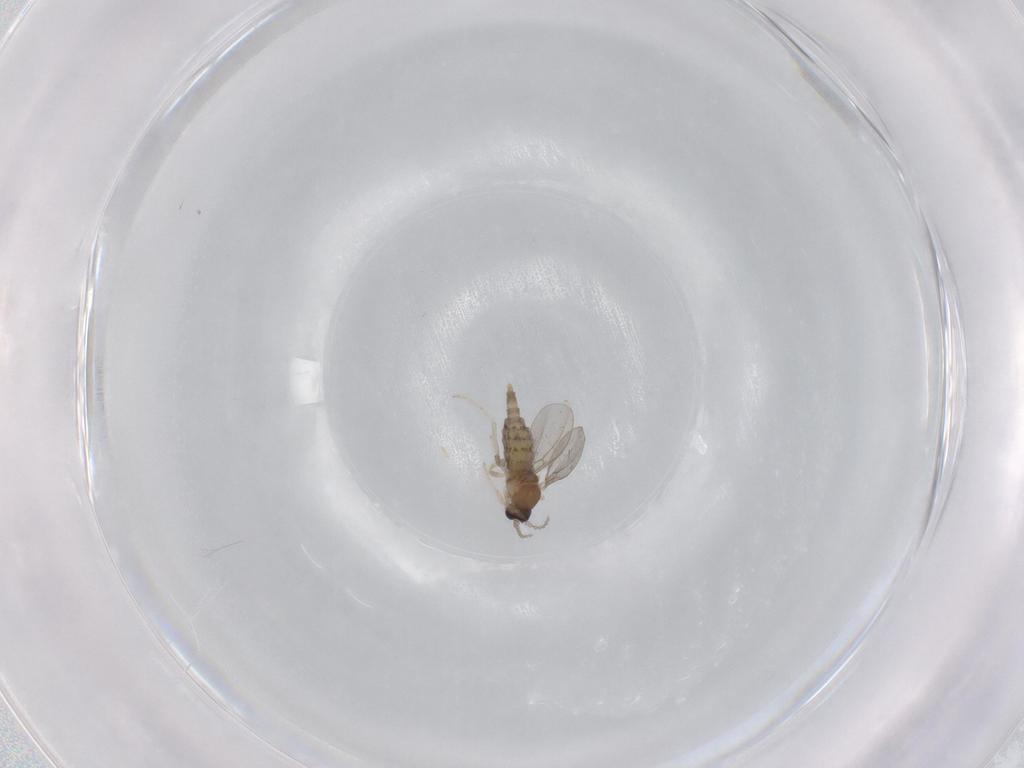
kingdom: Animalia
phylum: Arthropoda
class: Insecta
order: Diptera
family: Cecidomyiidae
